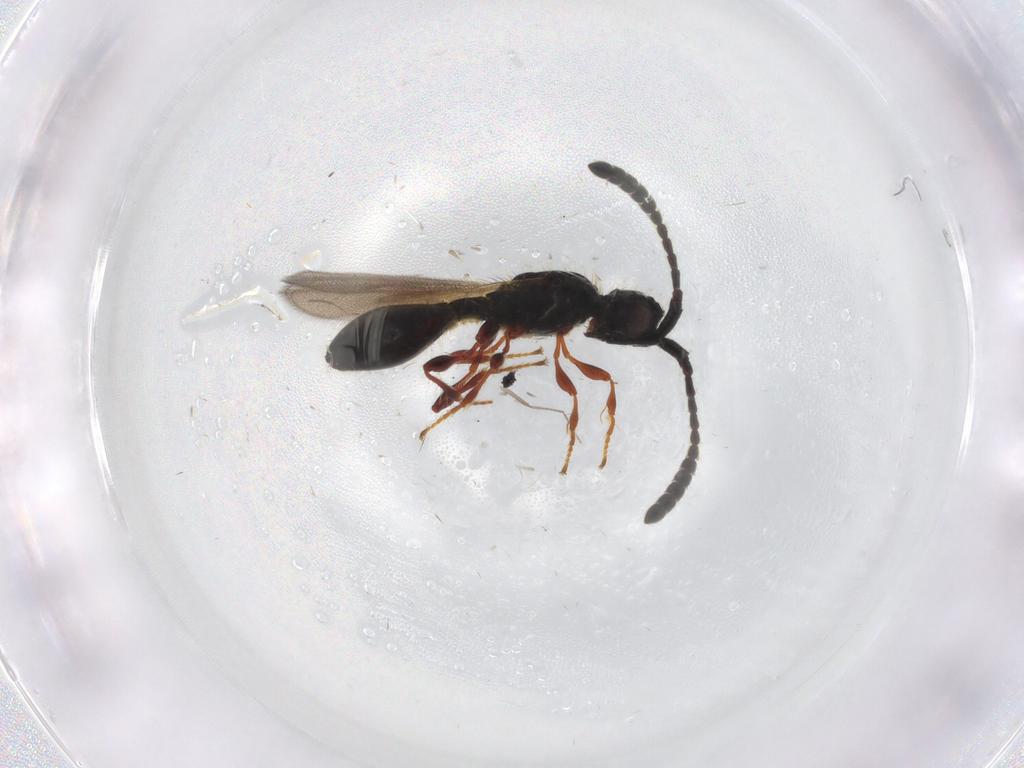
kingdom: Animalia
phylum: Arthropoda
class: Insecta
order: Hymenoptera
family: Diapriidae
